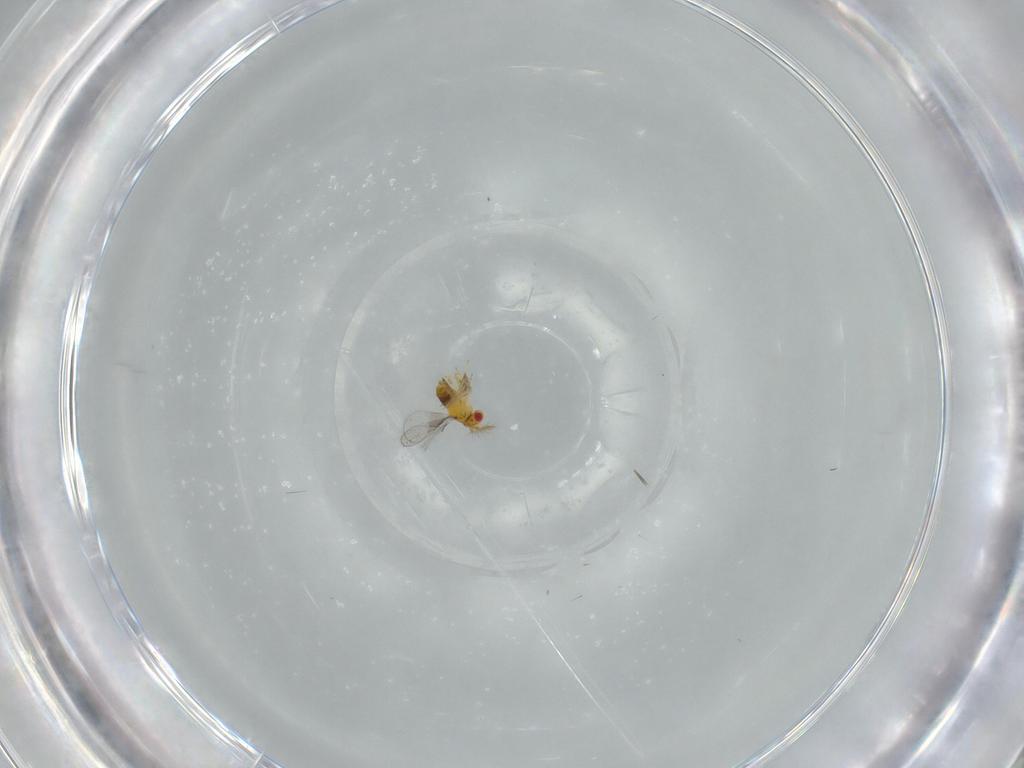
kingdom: Animalia
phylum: Arthropoda
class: Insecta
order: Hymenoptera
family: Trichogrammatidae
